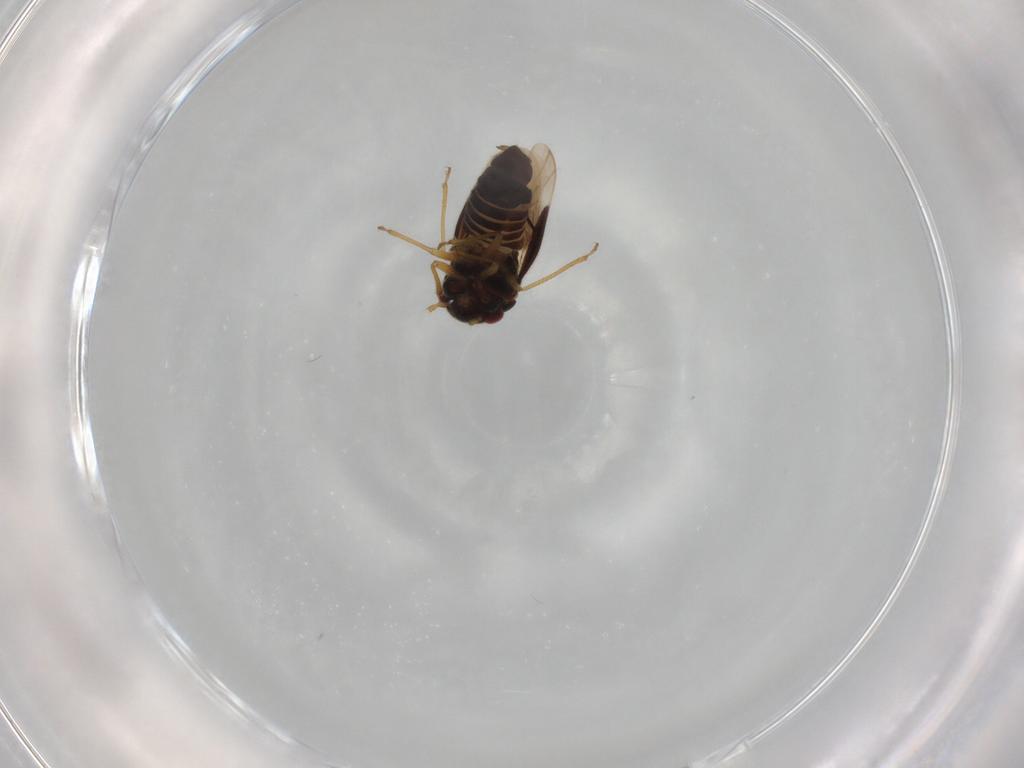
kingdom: Animalia
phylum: Arthropoda
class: Insecta
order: Hemiptera
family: Schizopteridae
